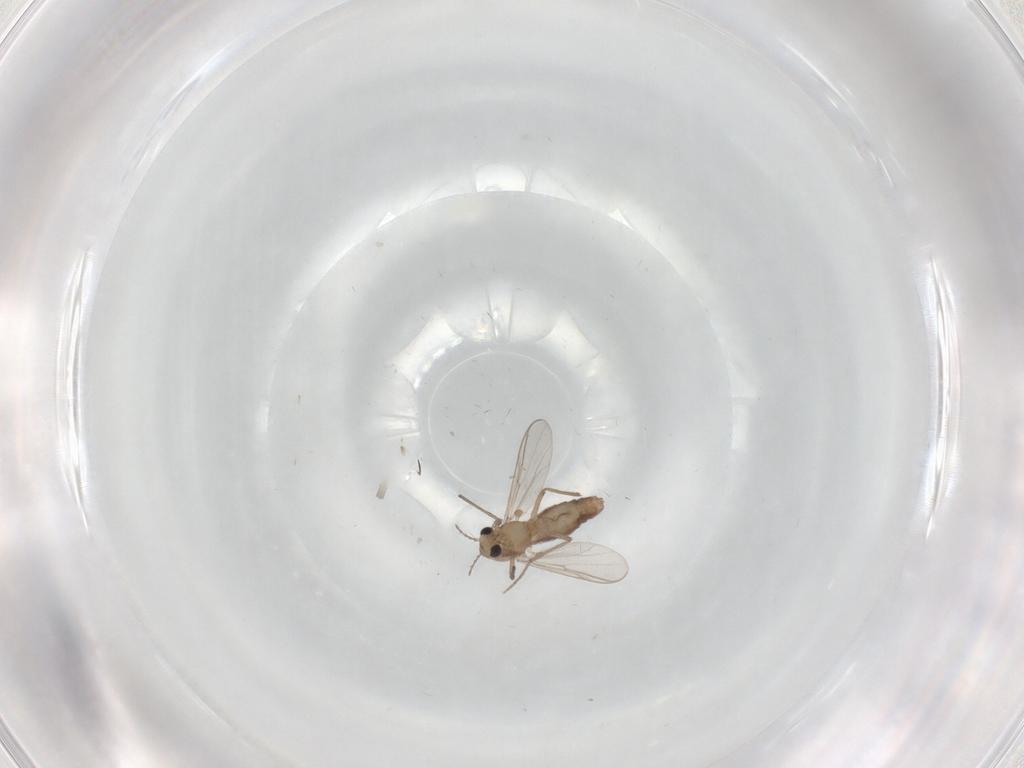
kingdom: Animalia
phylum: Arthropoda
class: Insecta
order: Diptera
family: Chironomidae
